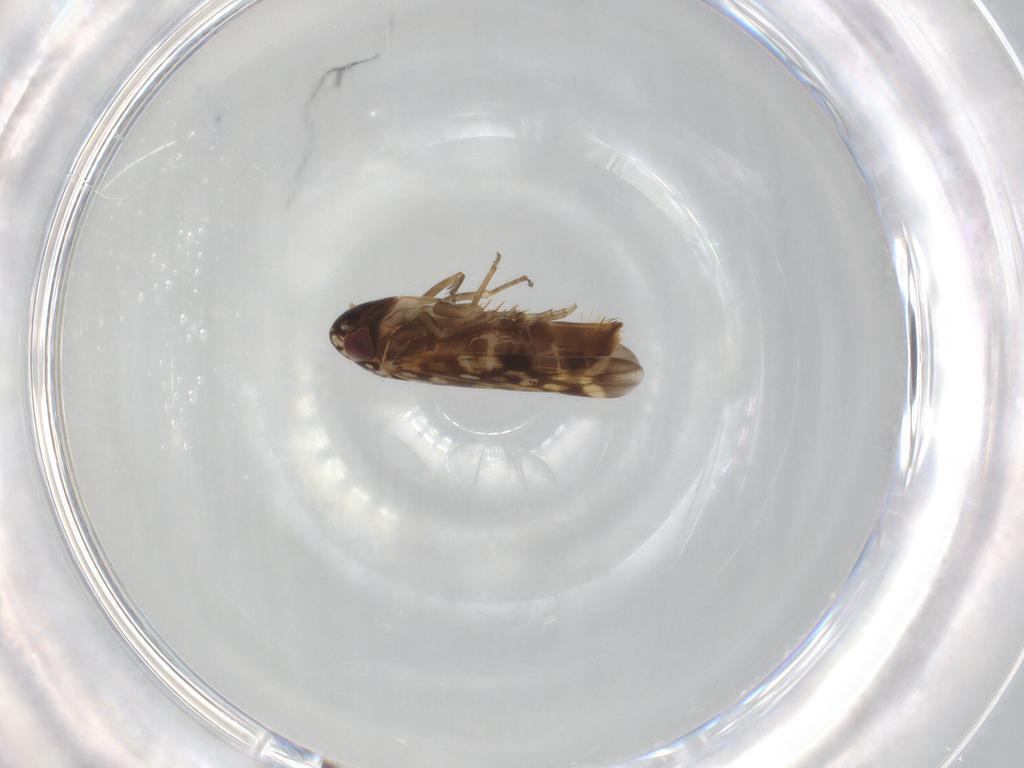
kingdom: Animalia
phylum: Arthropoda
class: Insecta
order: Hemiptera
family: Cicadellidae
